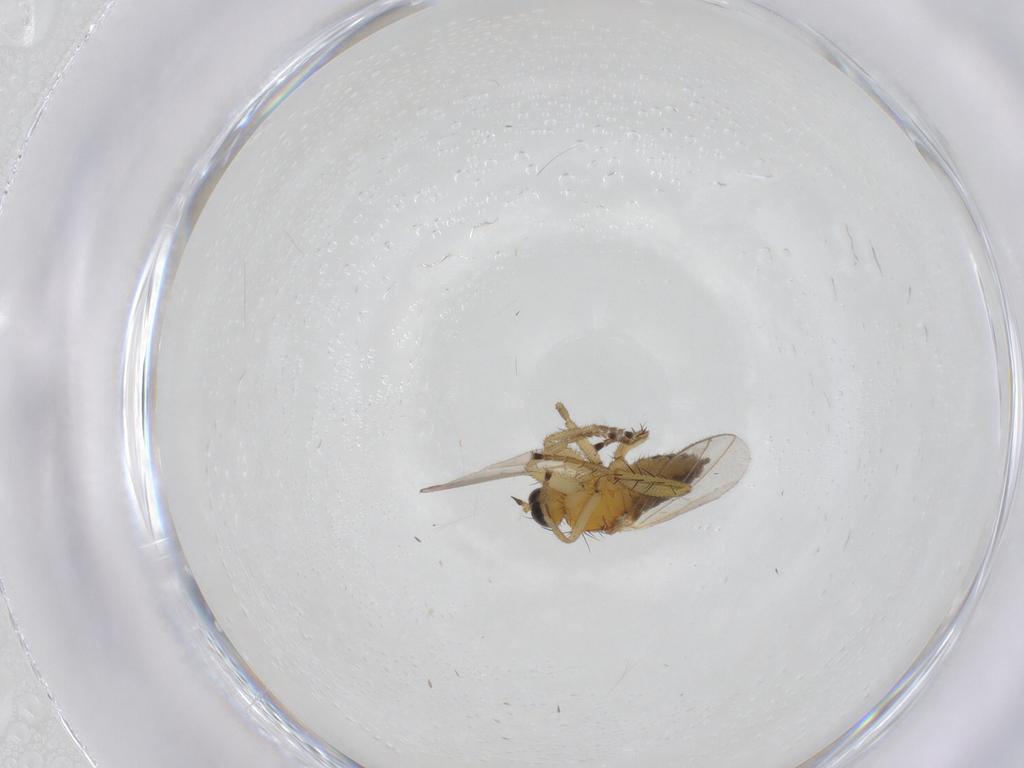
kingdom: Animalia
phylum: Arthropoda
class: Insecta
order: Diptera
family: Hybotidae
